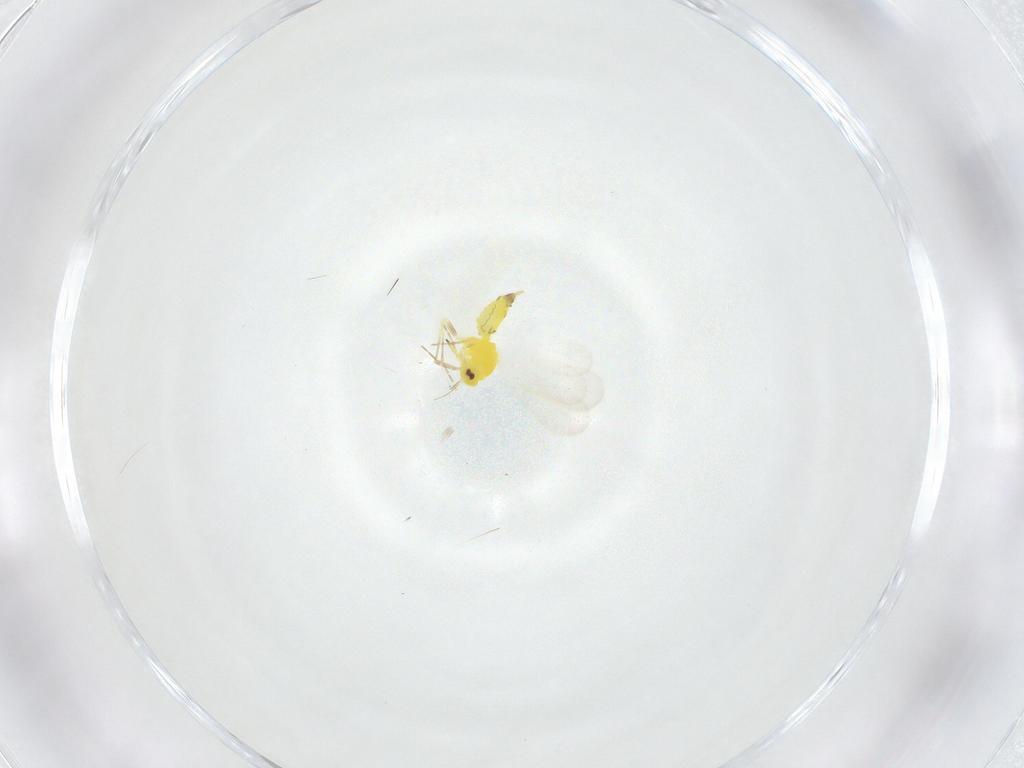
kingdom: Animalia
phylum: Arthropoda
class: Insecta
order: Hemiptera
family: Aleyrodidae
